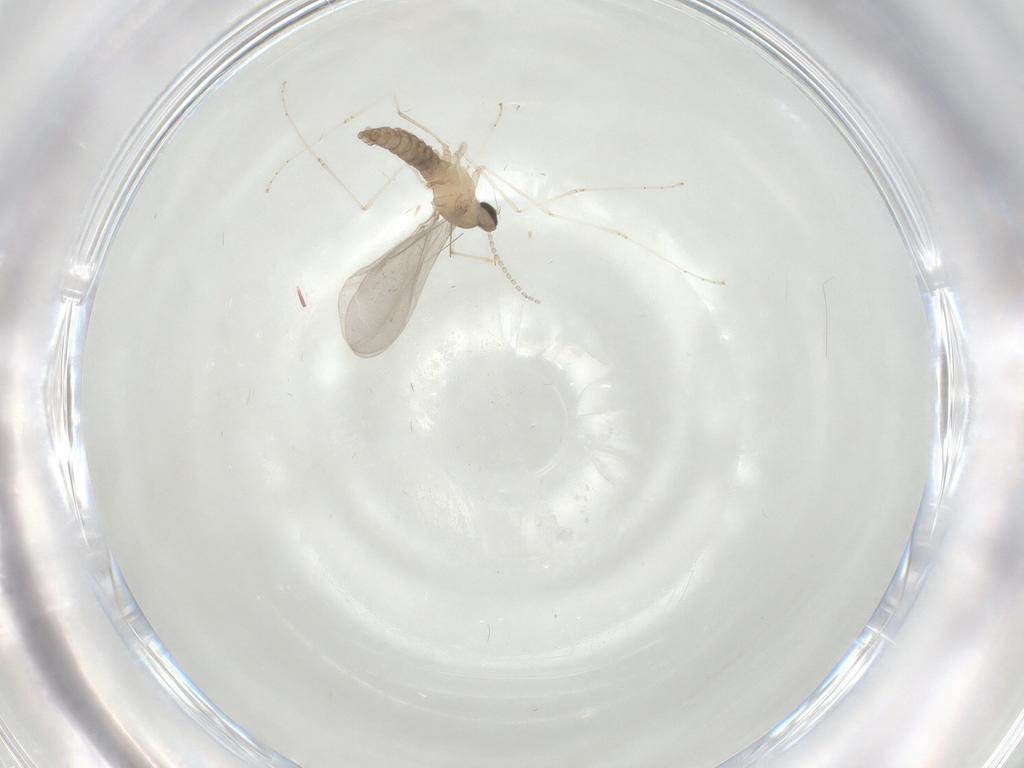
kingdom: Animalia
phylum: Arthropoda
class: Insecta
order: Diptera
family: Cecidomyiidae
